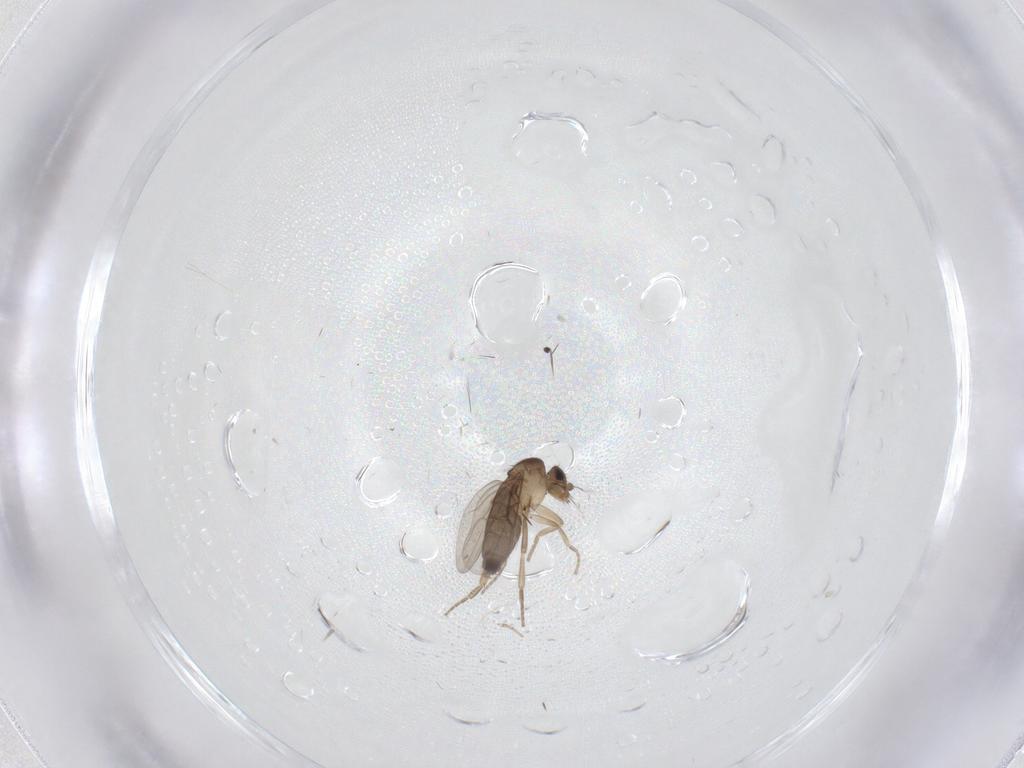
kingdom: Animalia
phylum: Arthropoda
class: Insecta
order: Diptera
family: Phoridae
